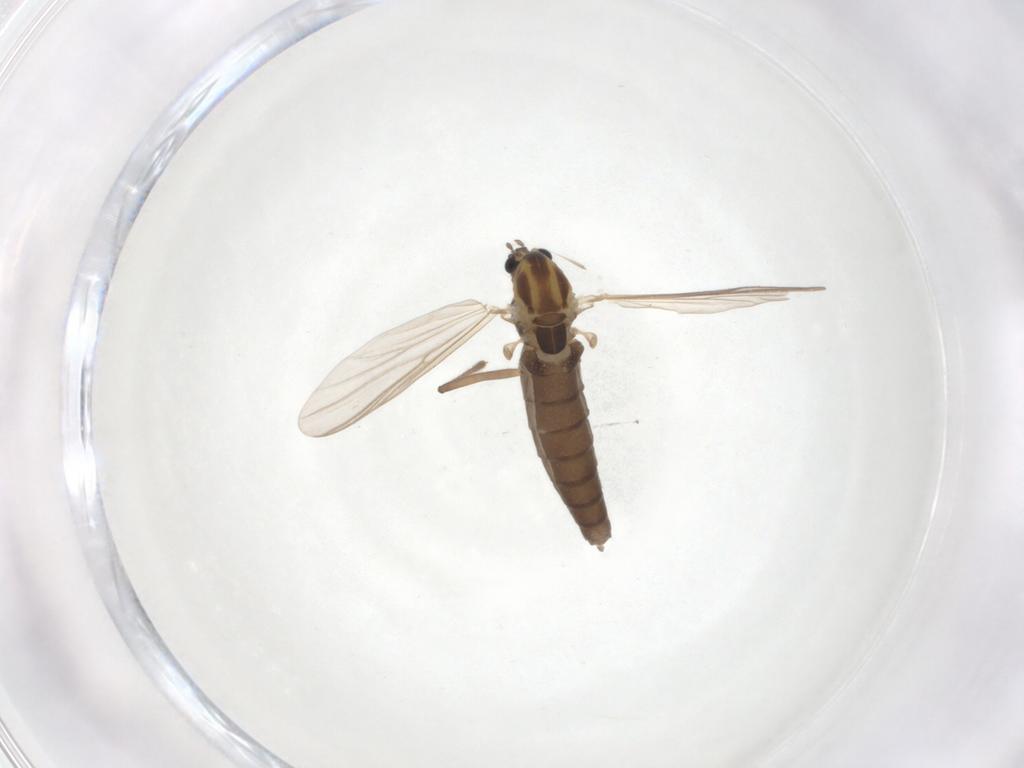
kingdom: Animalia
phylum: Arthropoda
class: Insecta
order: Diptera
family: Chironomidae
